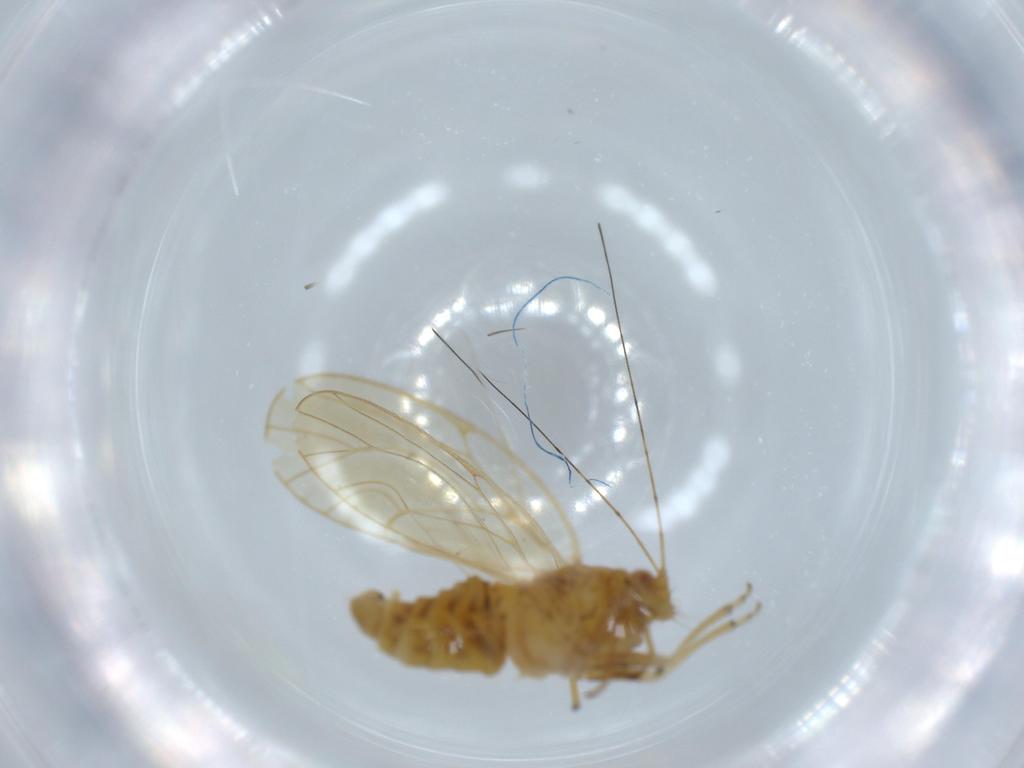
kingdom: Animalia
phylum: Arthropoda
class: Insecta
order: Hemiptera
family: Psyllidae
